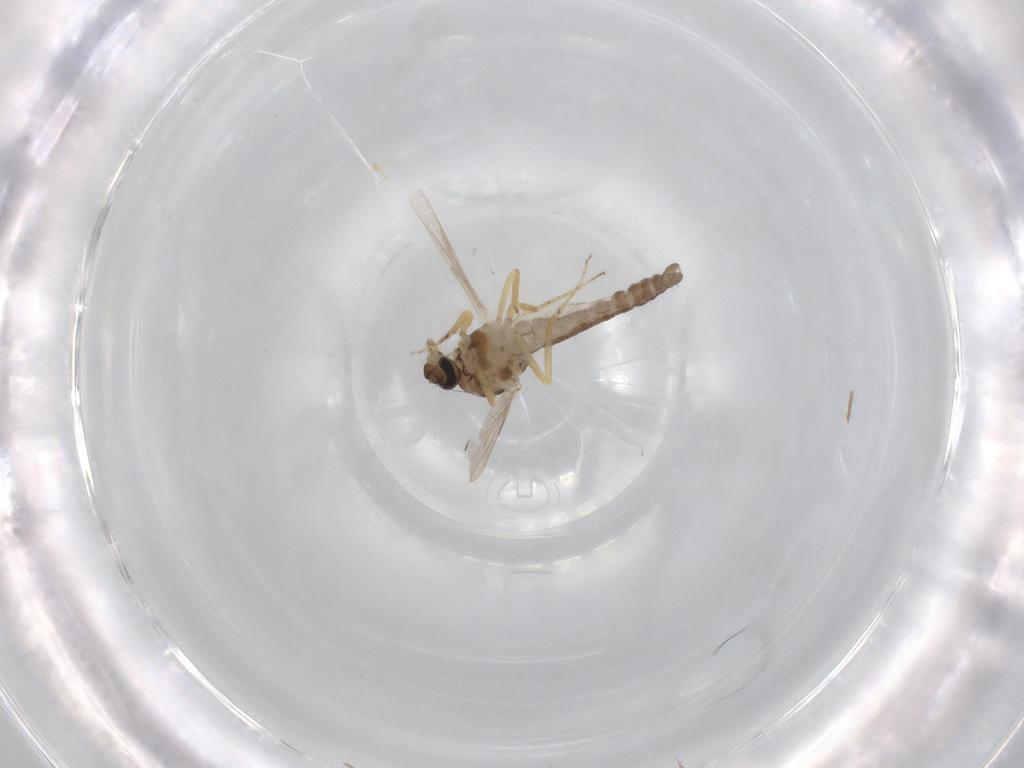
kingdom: Animalia
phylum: Arthropoda
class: Insecta
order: Diptera
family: Ceratopogonidae
